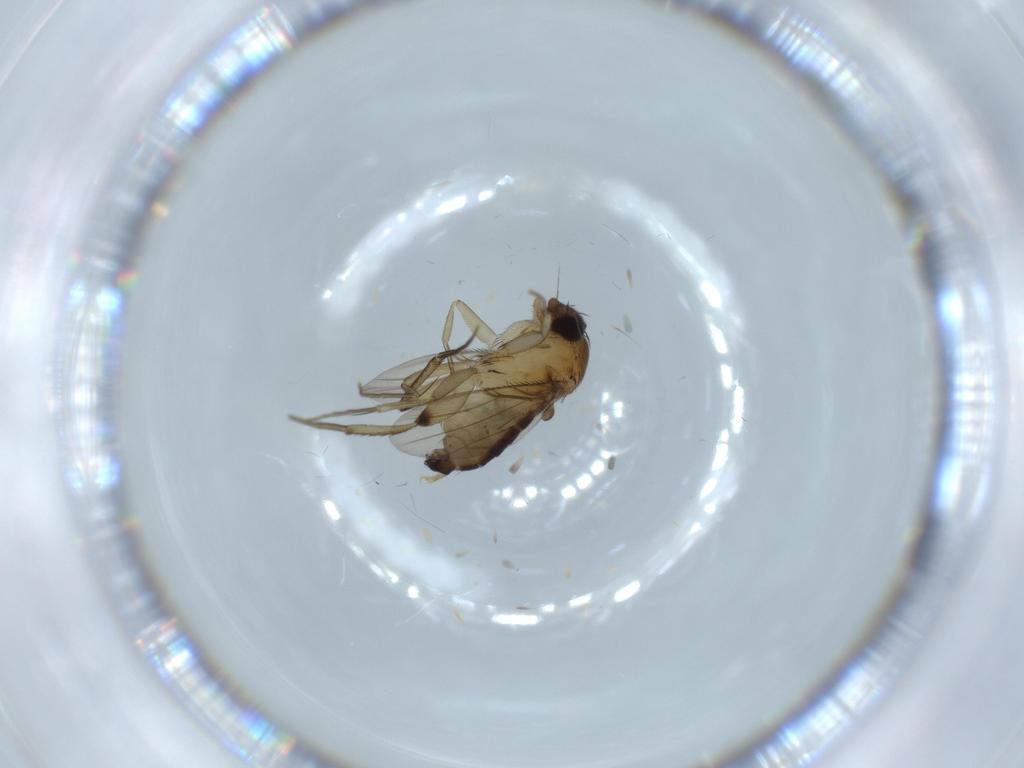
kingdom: Animalia
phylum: Arthropoda
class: Insecta
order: Diptera
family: Phoridae
